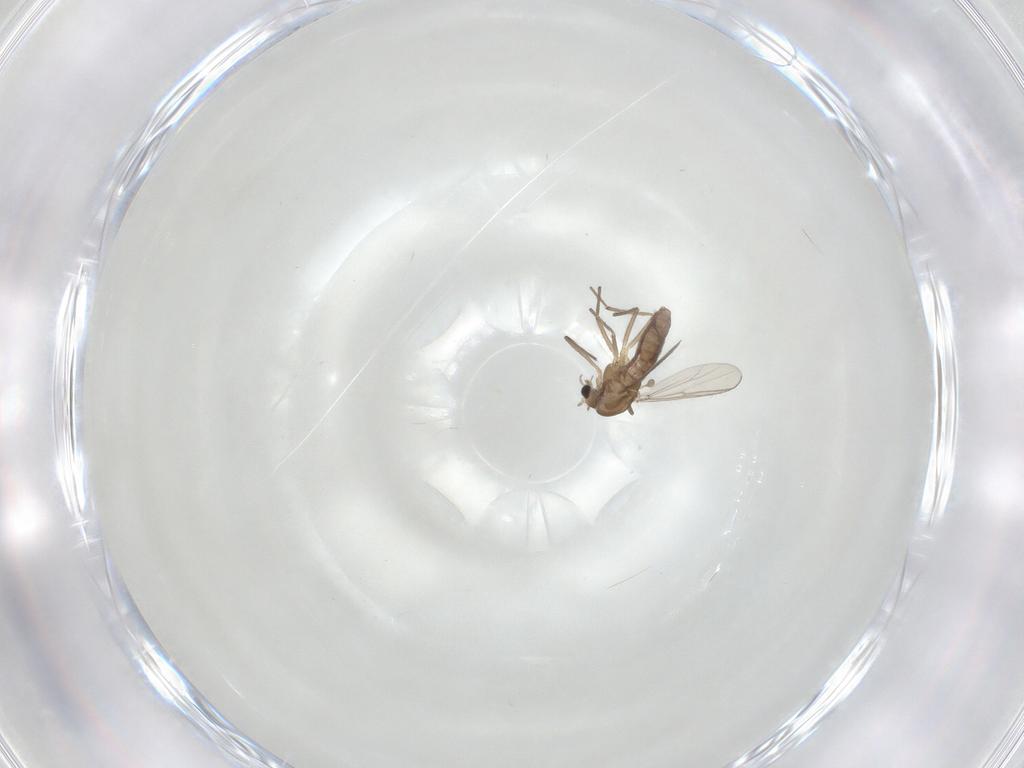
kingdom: Animalia
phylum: Arthropoda
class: Insecta
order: Diptera
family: Chironomidae
